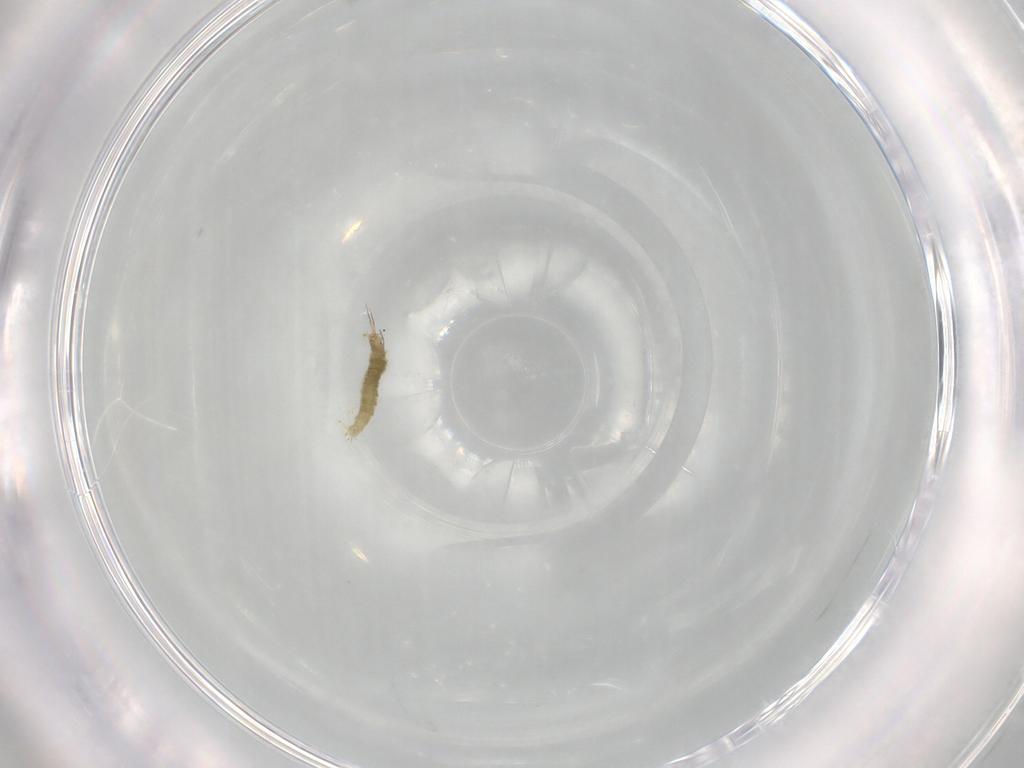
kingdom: Animalia
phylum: Arthropoda
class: Insecta
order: Diptera
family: Chironomidae
